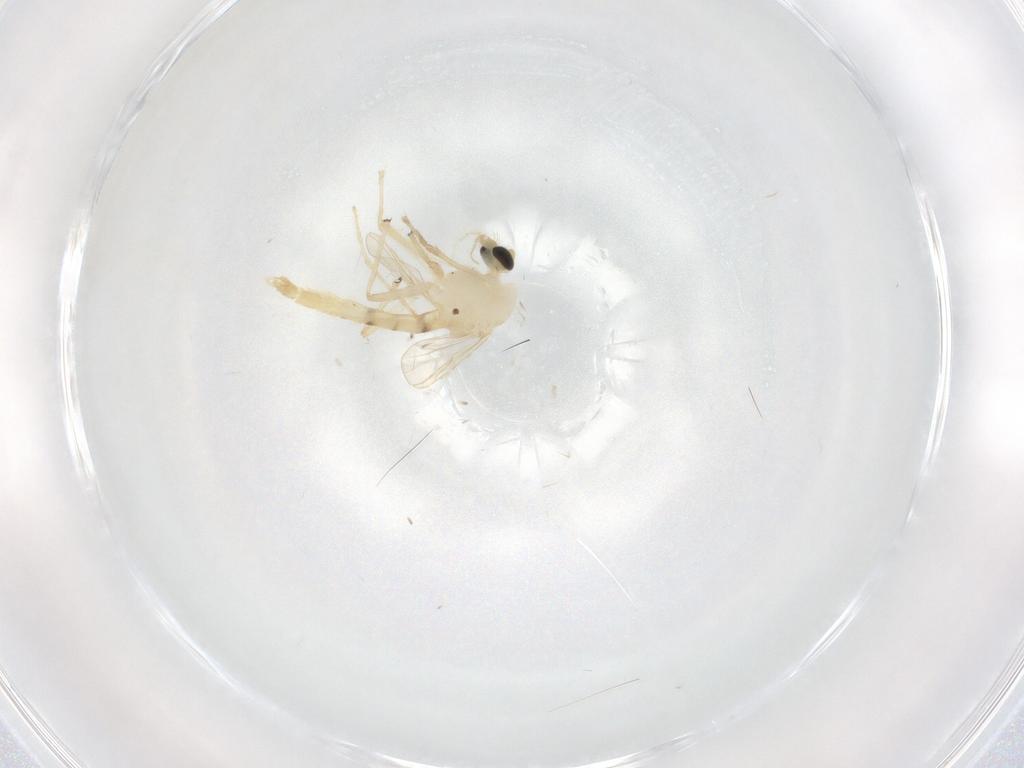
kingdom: Animalia
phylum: Arthropoda
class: Insecta
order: Diptera
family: Chironomidae
